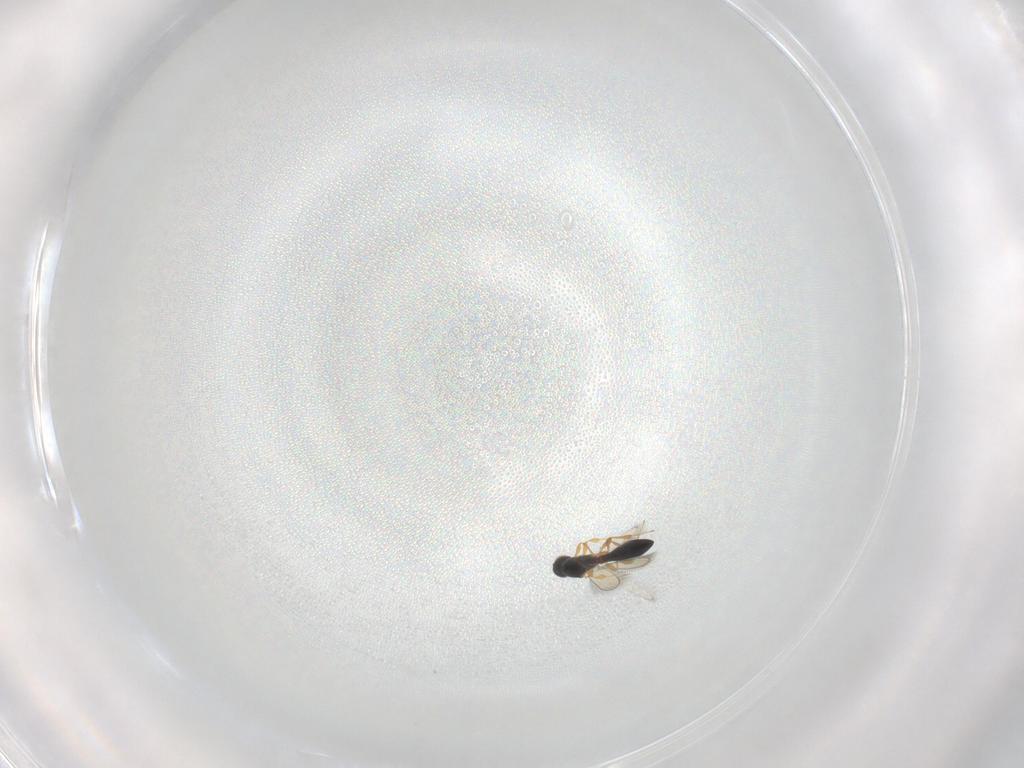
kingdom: Animalia
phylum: Arthropoda
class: Insecta
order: Hymenoptera
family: Platygastridae
